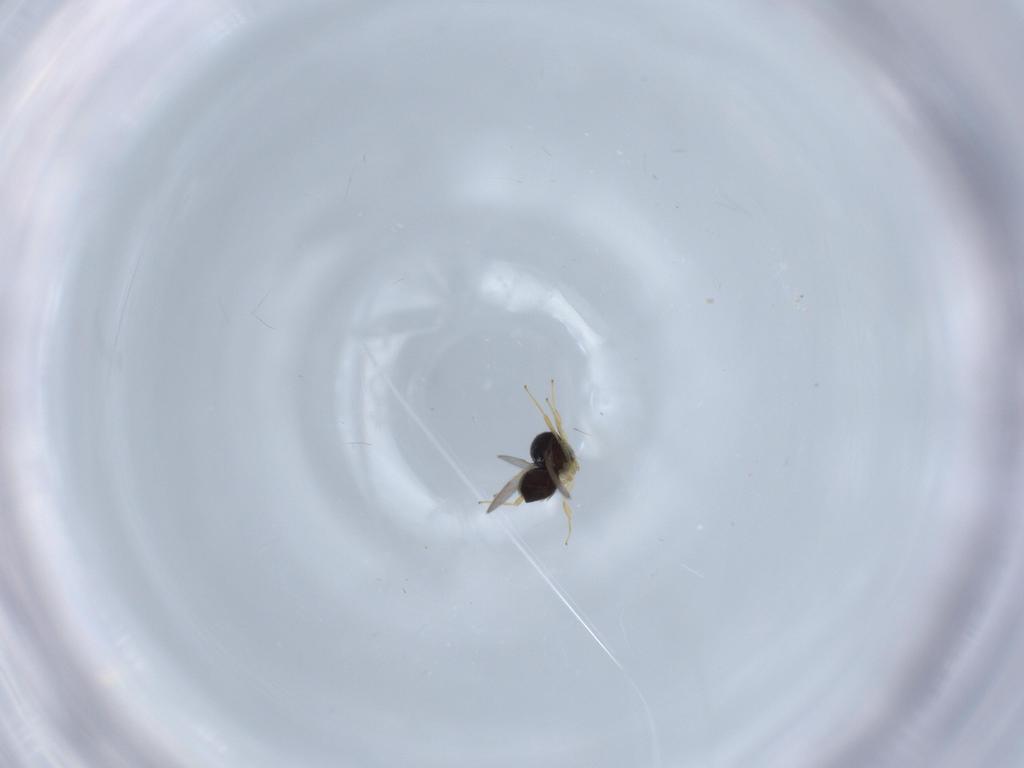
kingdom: Animalia
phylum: Arthropoda
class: Insecta
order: Hymenoptera
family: Scelionidae
